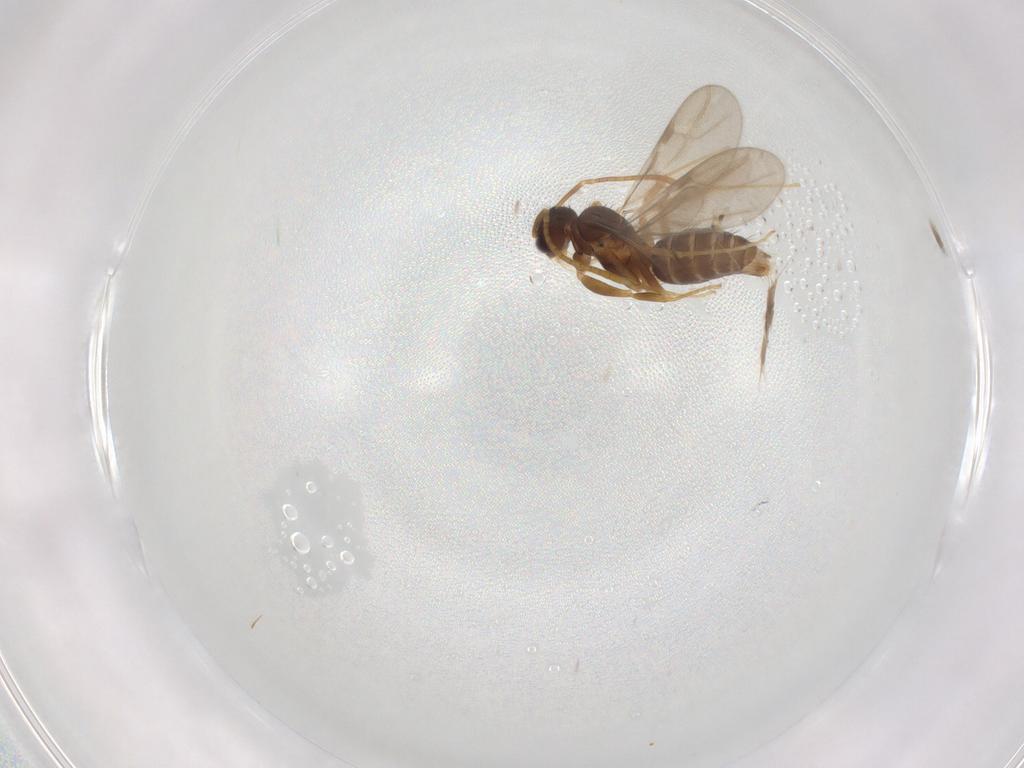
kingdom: Animalia
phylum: Arthropoda
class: Insecta
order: Hymenoptera
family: Formicidae
